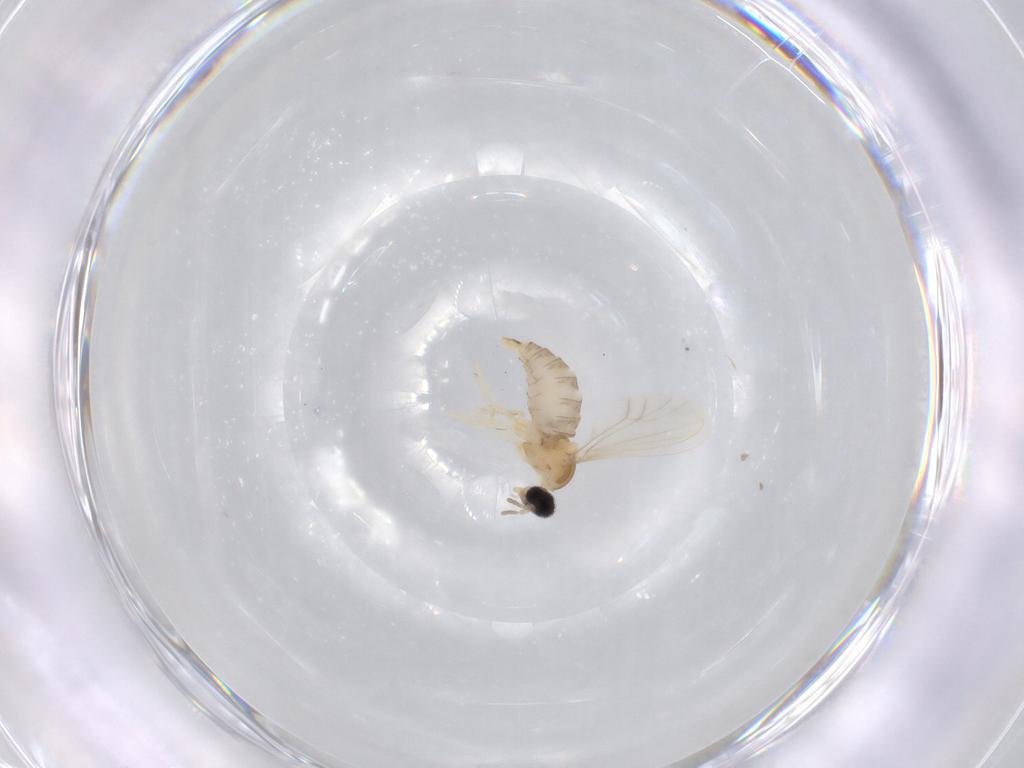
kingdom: Animalia
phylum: Arthropoda
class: Insecta
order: Diptera
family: Cecidomyiidae
